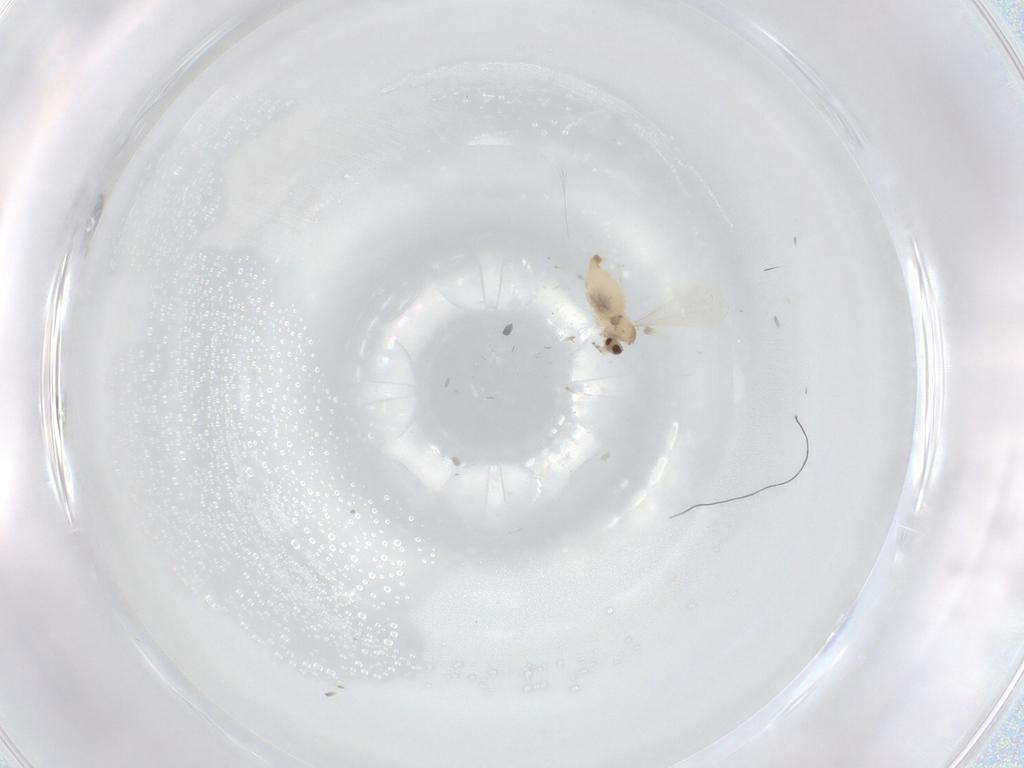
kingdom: Animalia
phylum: Arthropoda
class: Insecta
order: Diptera
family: Cecidomyiidae
